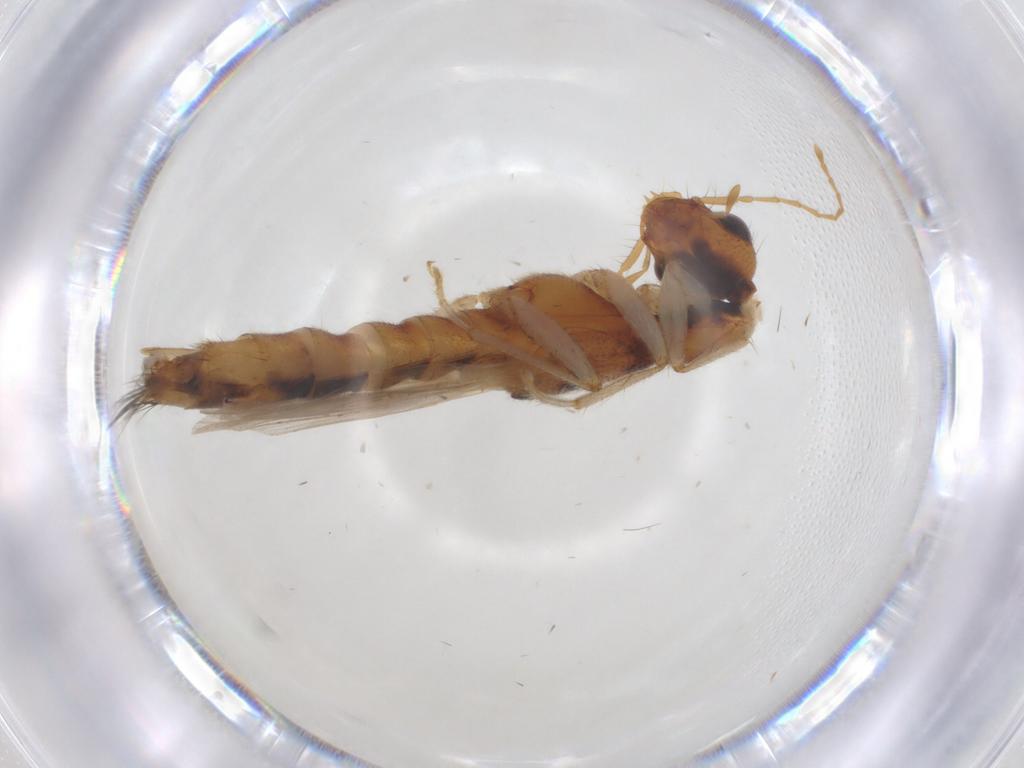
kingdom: Animalia
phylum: Arthropoda
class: Insecta
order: Coleoptera
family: Staphylinidae
